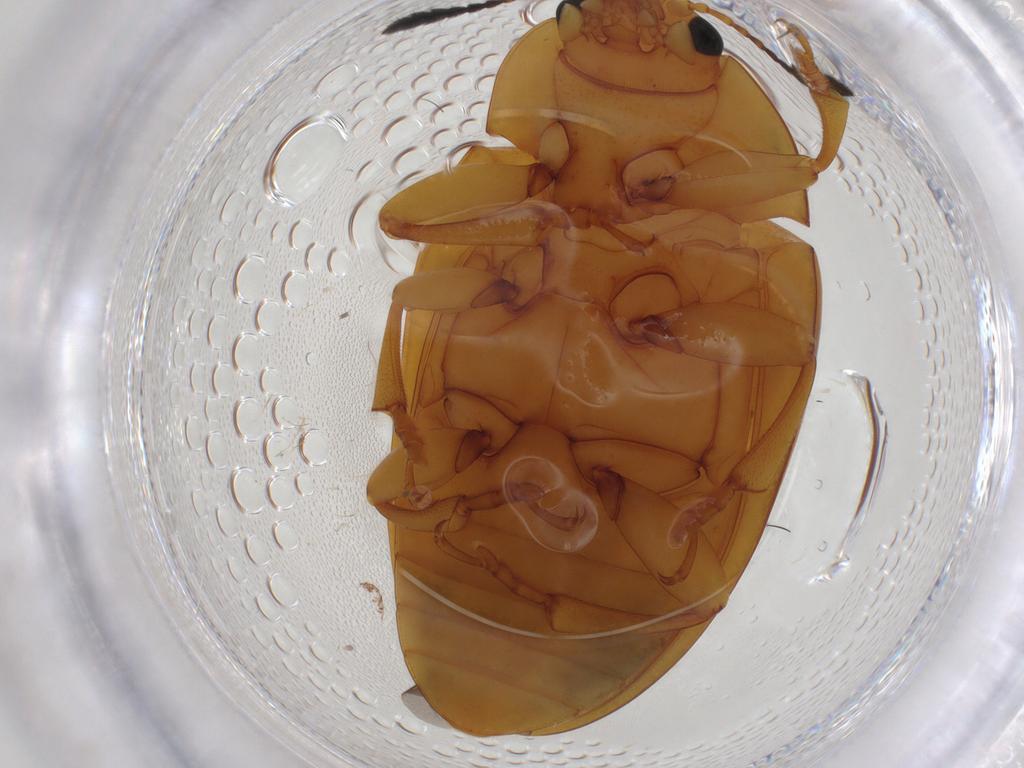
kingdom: Animalia
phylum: Arthropoda
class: Insecta
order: Coleoptera
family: Erotylidae
